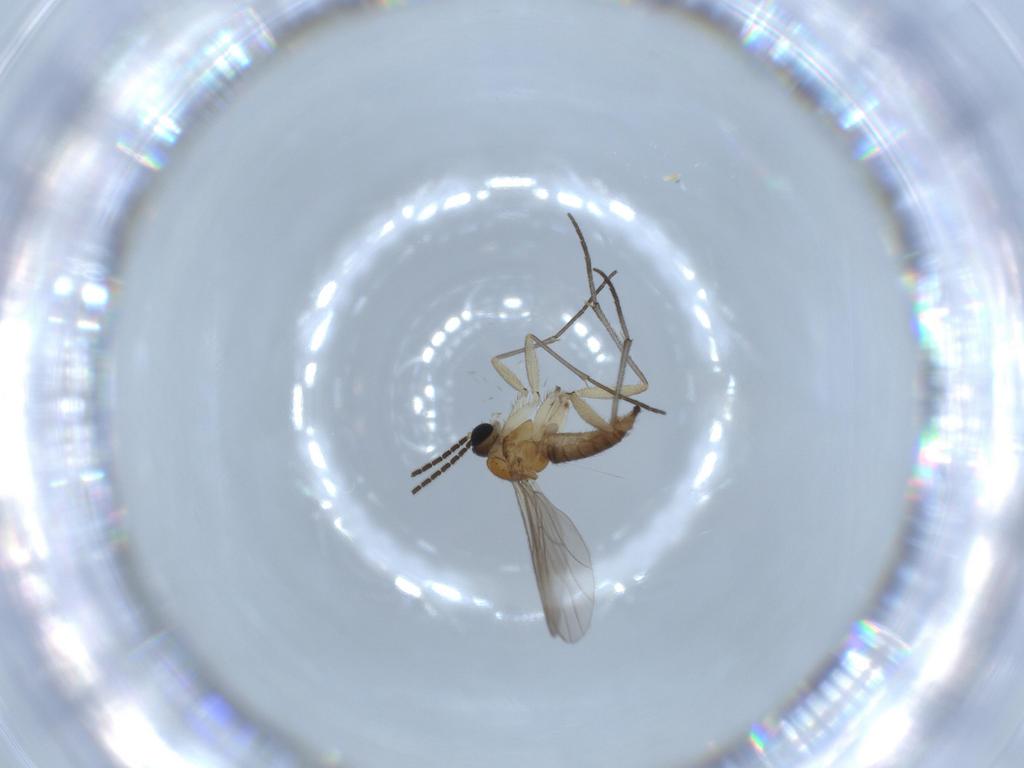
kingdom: Animalia
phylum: Arthropoda
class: Insecta
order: Diptera
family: Sciaridae
